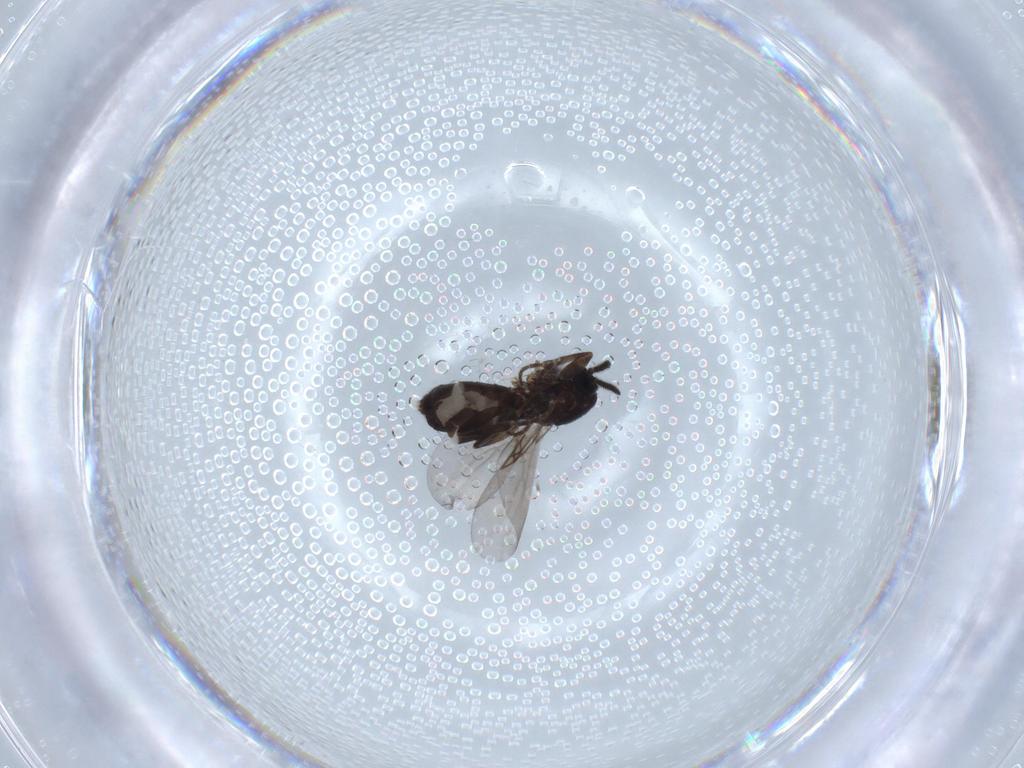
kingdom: Animalia
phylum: Arthropoda
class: Insecta
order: Diptera
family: Scatopsidae
